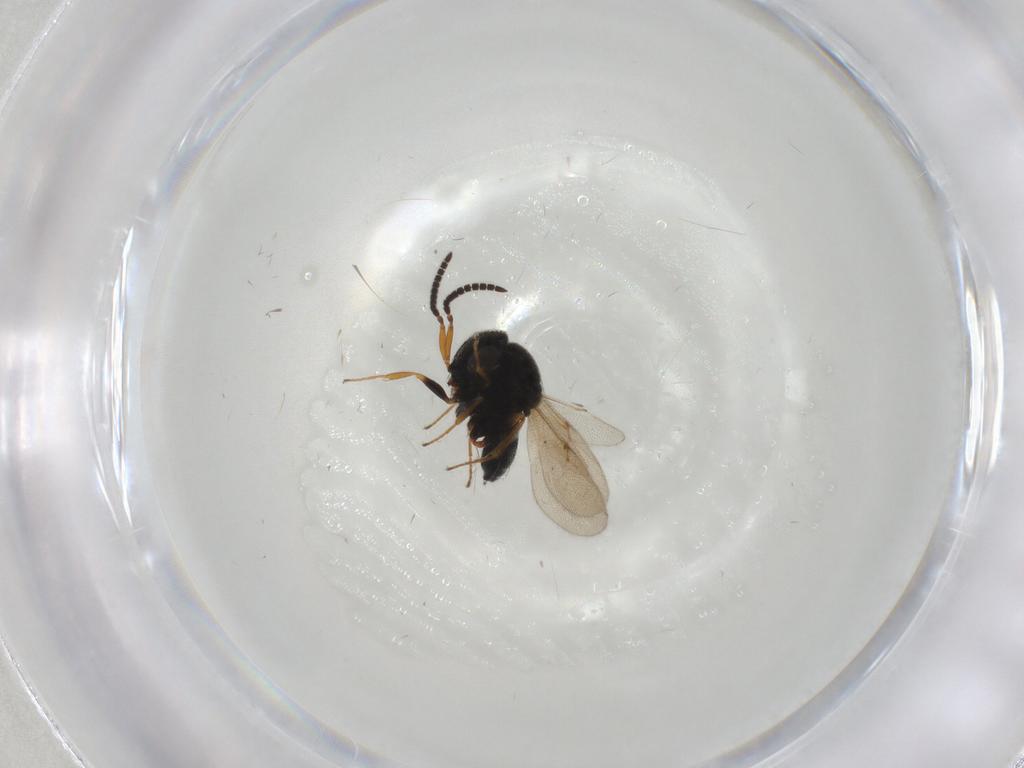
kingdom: Animalia
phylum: Arthropoda
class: Insecta
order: Hymenoptera
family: Scelionidae
